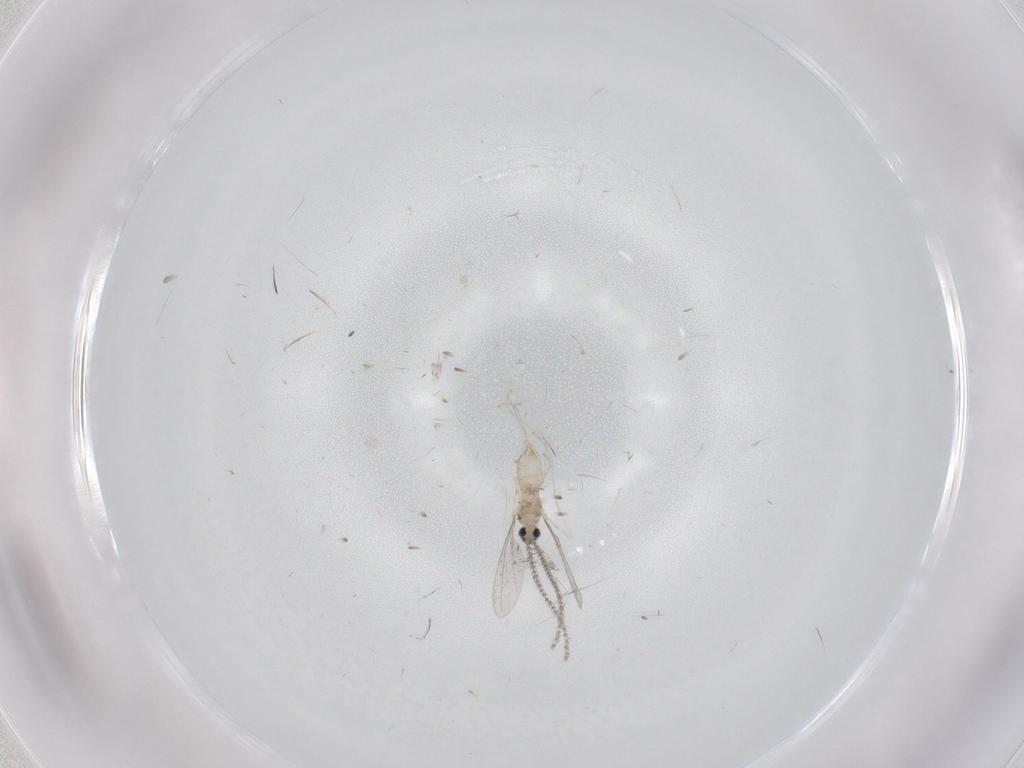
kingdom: Animalia
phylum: Arthropoda
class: Insecta
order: Diptera
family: Cecidomyiidae
